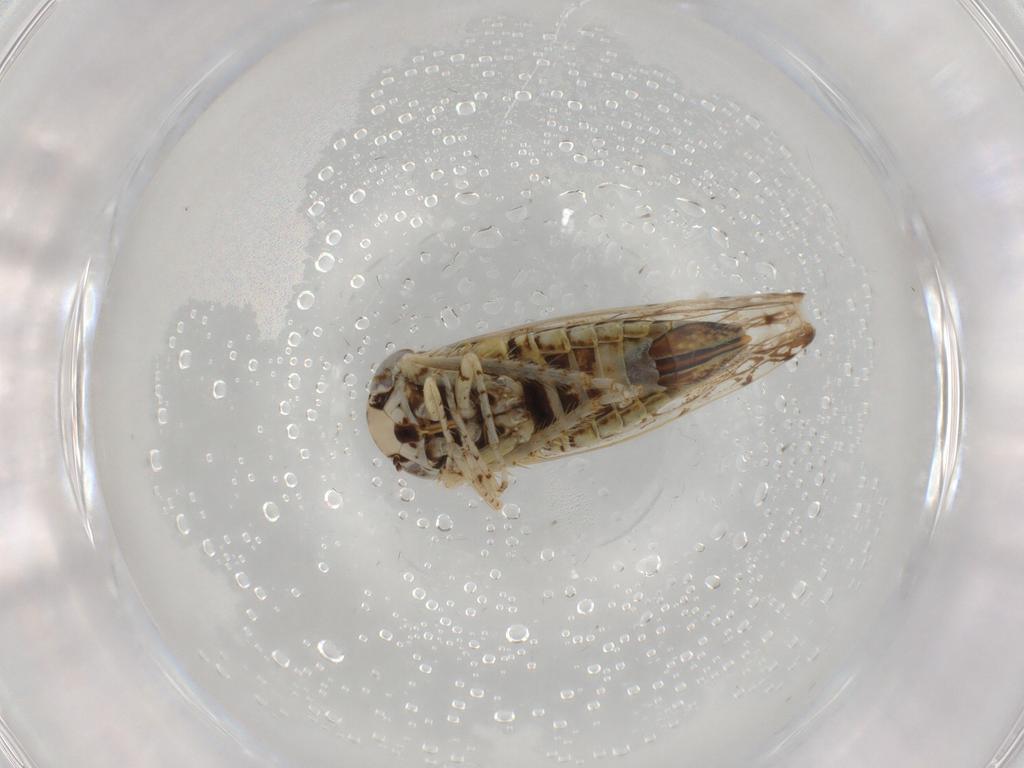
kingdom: Animalia
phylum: Arthropoda
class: Insecta
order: Hemiptera
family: Cicadellidae
